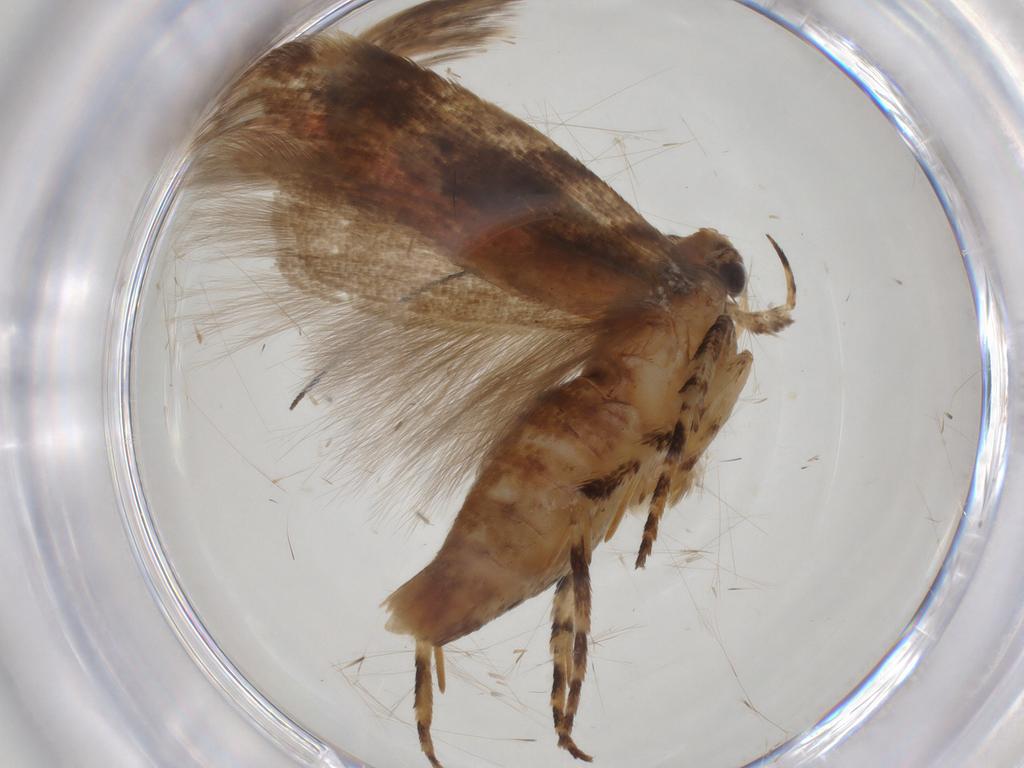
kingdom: Animalia
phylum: Arthropoda
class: Insecta
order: Lepidoptera
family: Gelechiidae
